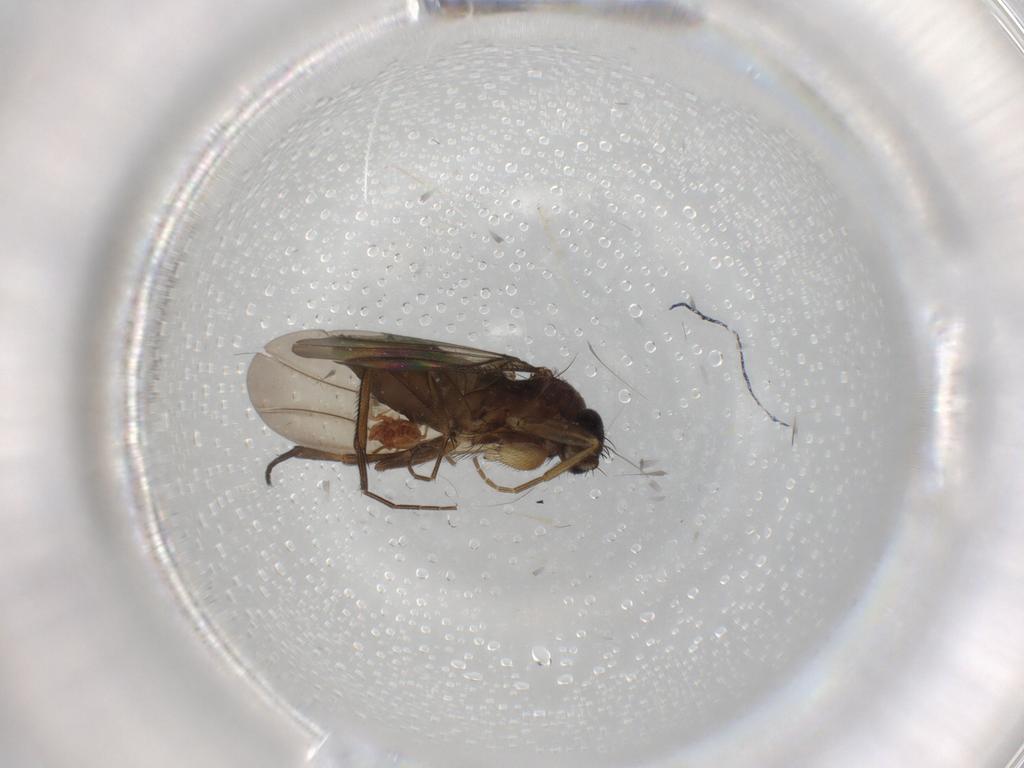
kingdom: Animalia
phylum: Arthropoda
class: Insecta
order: Diptera
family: Phoridae
